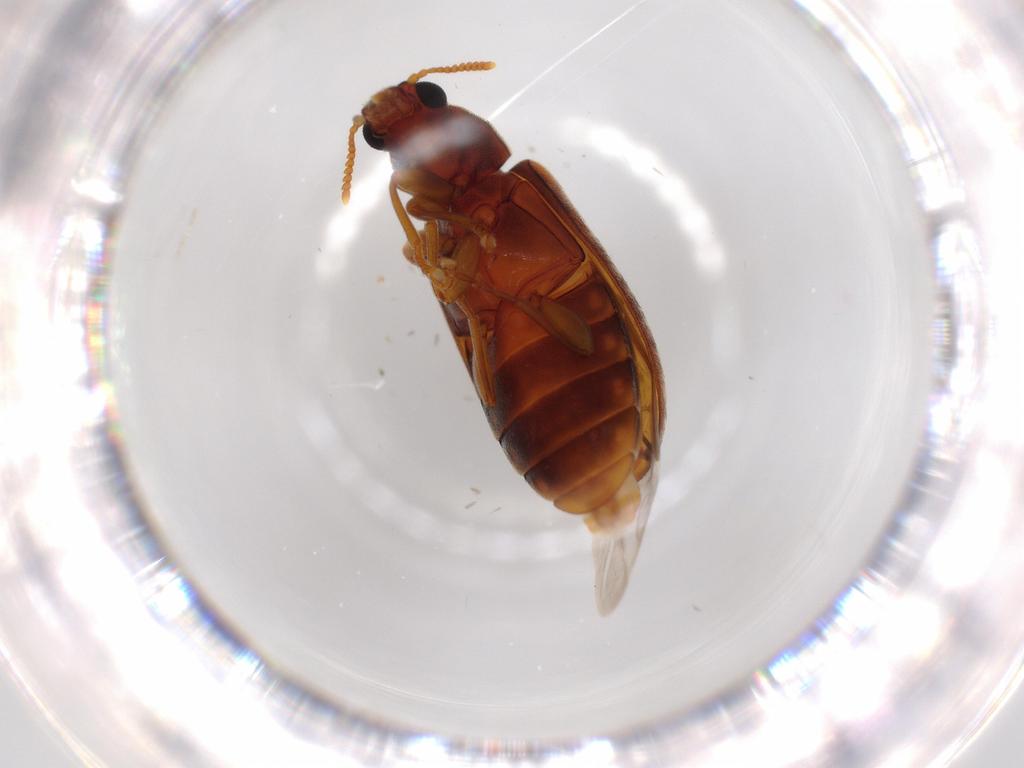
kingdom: Animalia
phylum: Arthropoda
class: Insecta
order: Coleoptera
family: Mycteridae
